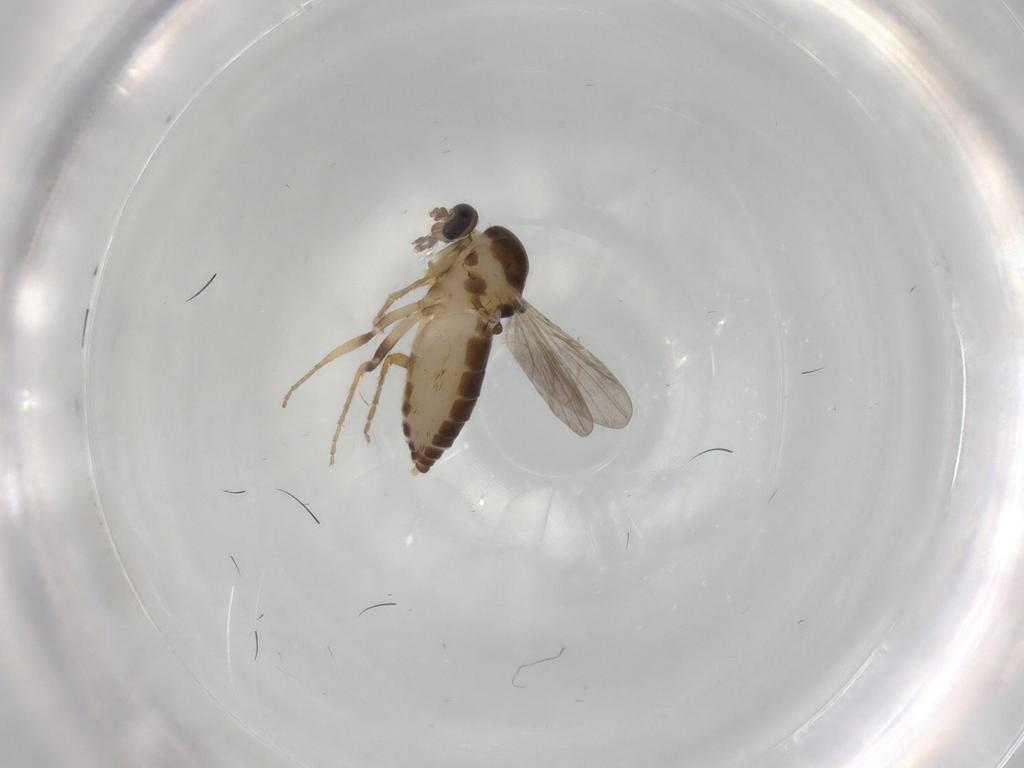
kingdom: Animalia
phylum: Arthropoda
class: Insecta
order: Diptera
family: Ceratopogonidae
